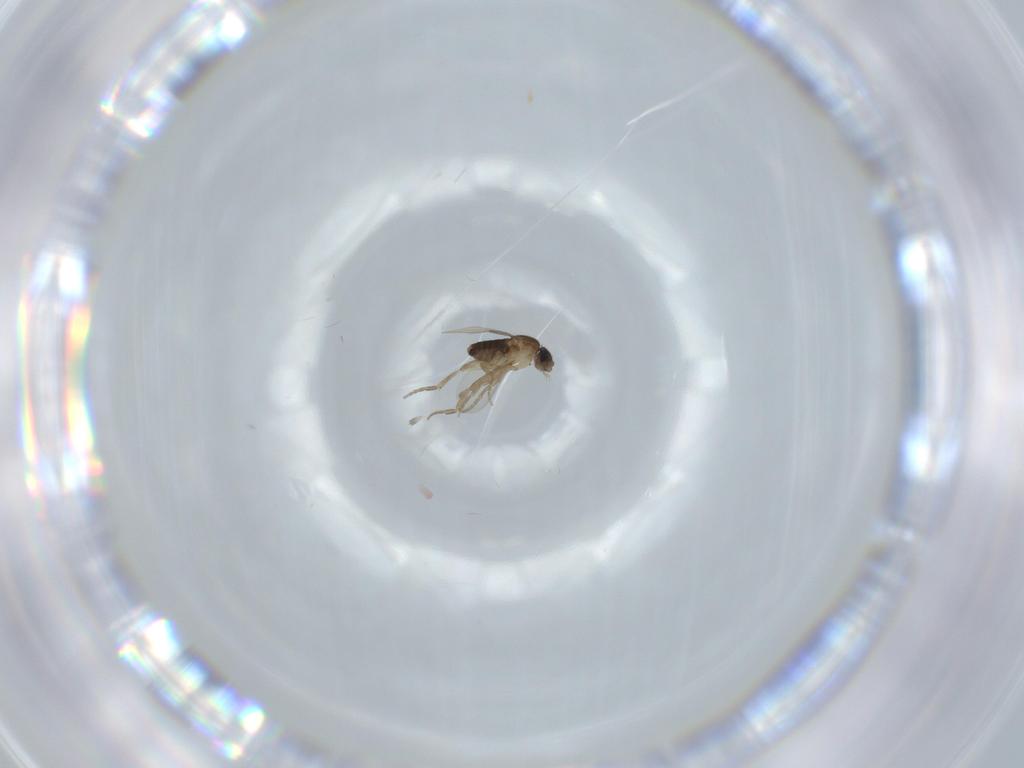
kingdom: Animalia
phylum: Arthropoda
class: Insecta
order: Diptera
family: Phoridae
